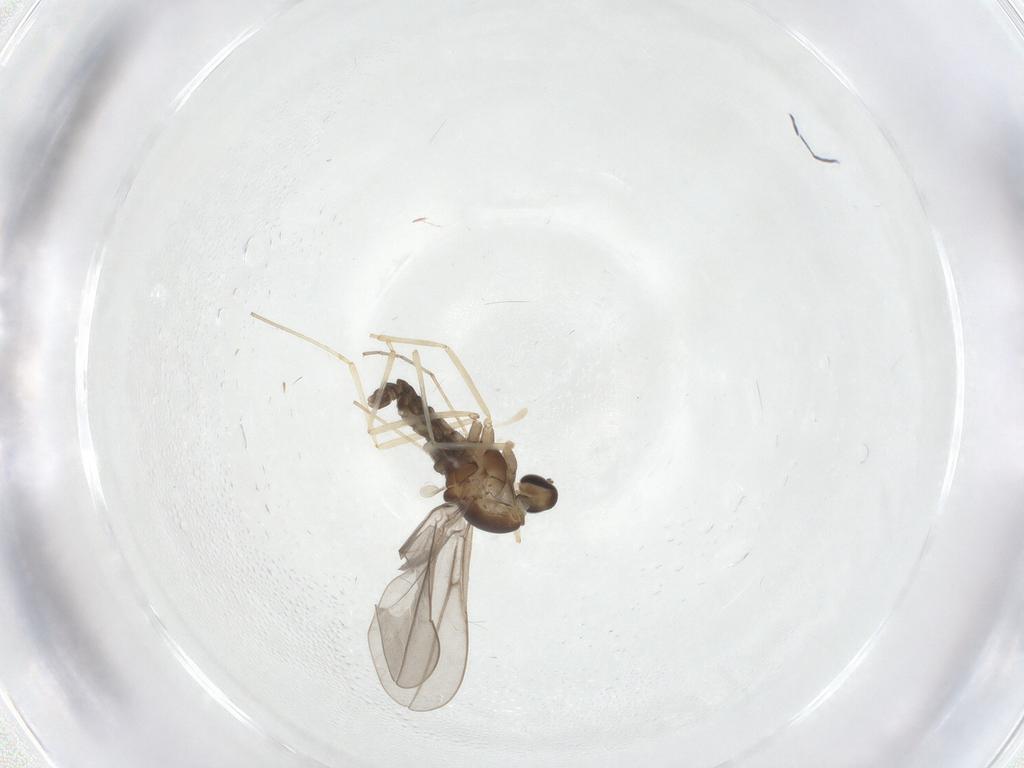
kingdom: Animalia
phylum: Arthropoda
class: Insecta
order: Diptera
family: Cecidomyiidae
